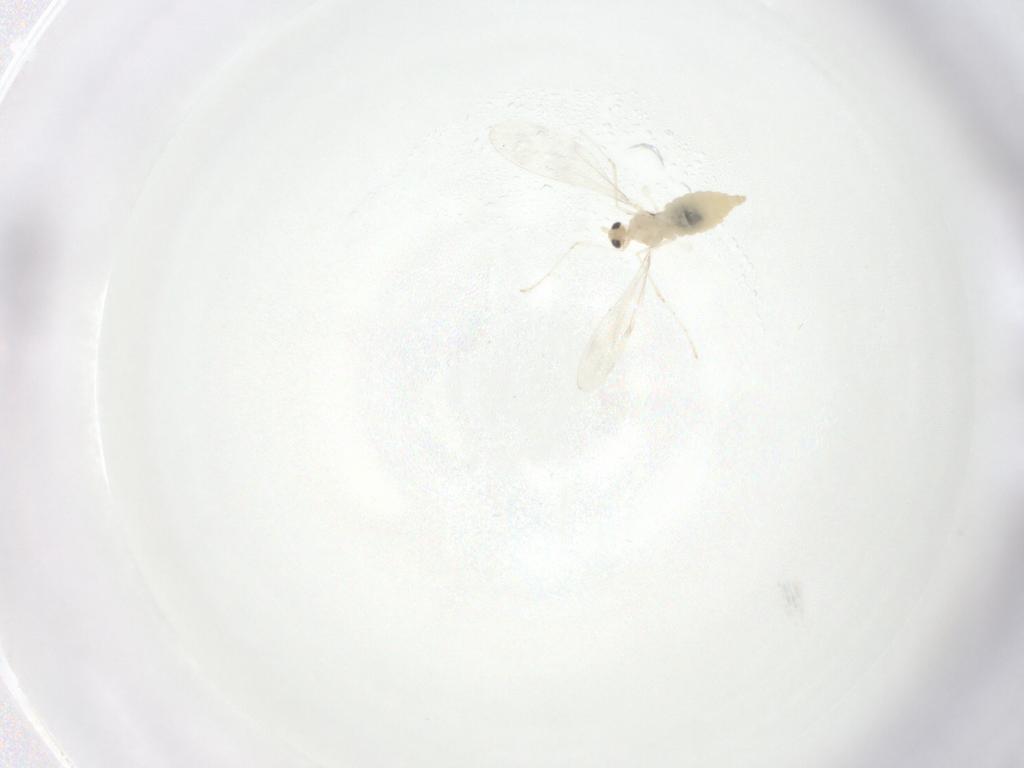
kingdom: Animalia
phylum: Arthropoda
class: Insecta
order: Diptera
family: Cecidomyiidae
